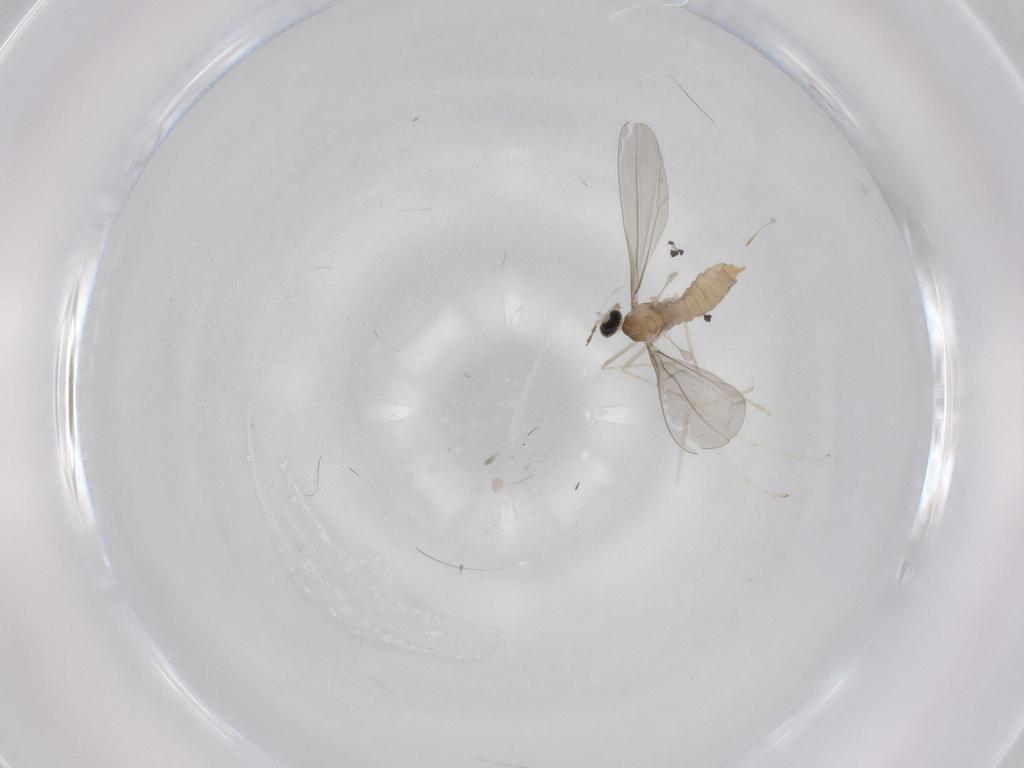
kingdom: Animalia
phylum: Arthropoda
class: Insecta
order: Diptera
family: Cecidomyiidae
